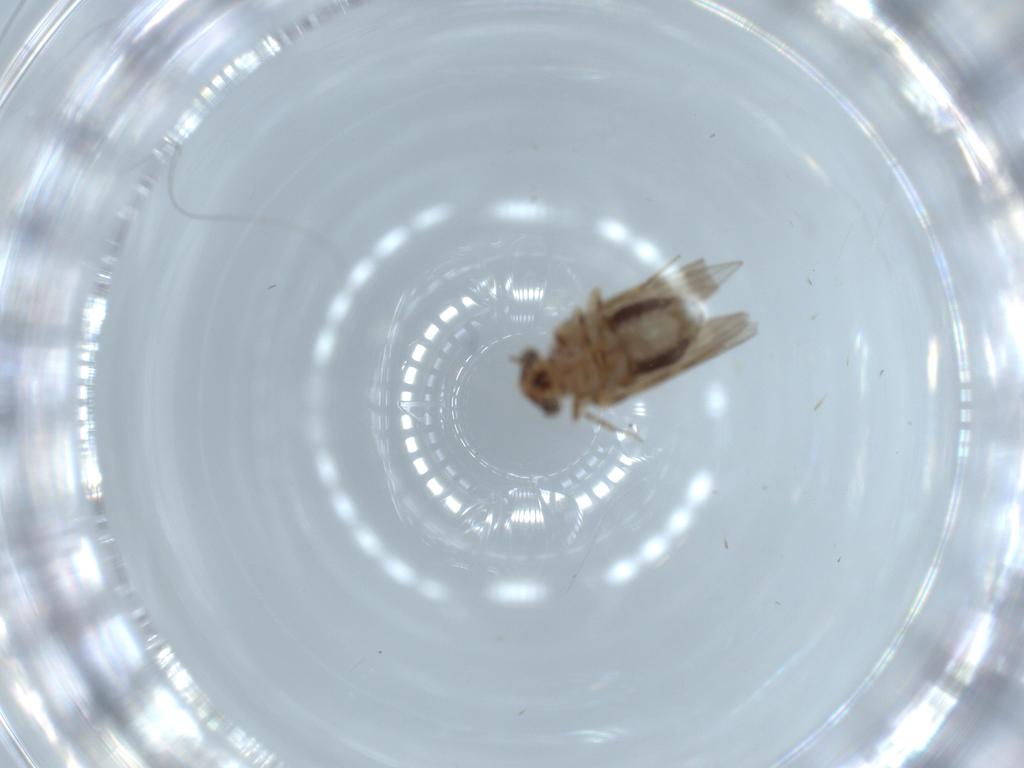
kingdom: Animalia
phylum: Arthropoda
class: Insecta
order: Psocodea
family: Lepidopsocidae
